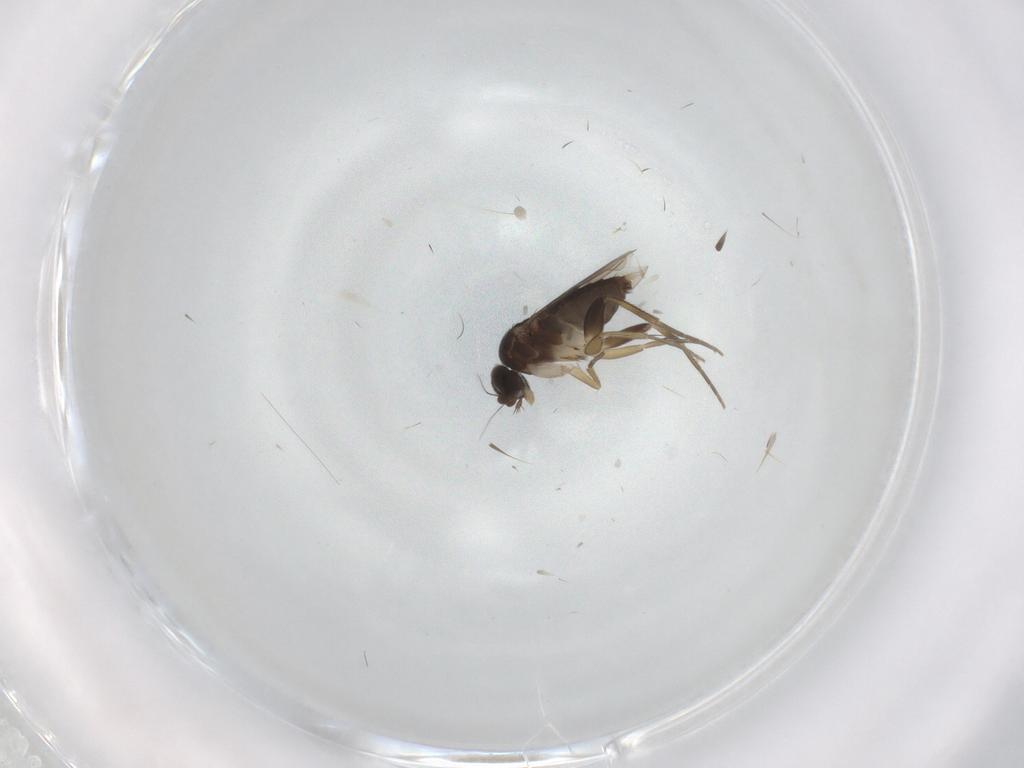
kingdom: Animalia
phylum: Arthropoda
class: Insecta
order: Diptera
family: Phoridae
